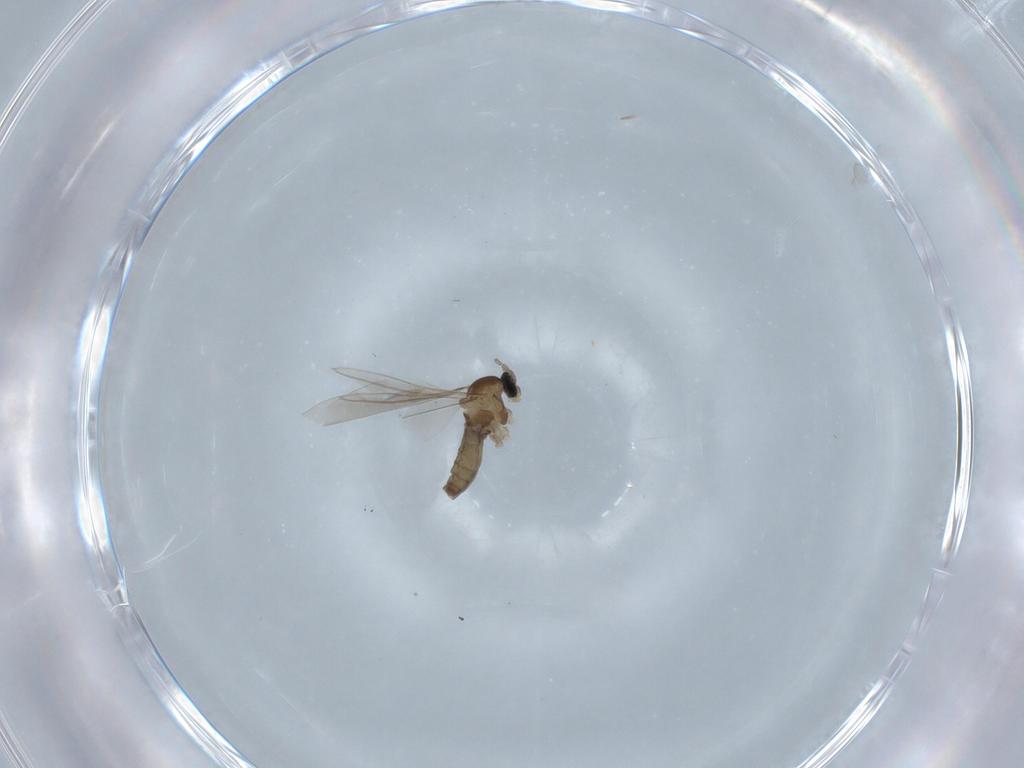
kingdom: Animalia
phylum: Arthropoda
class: Insecta
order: Diptera
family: Cecidomyiidae
